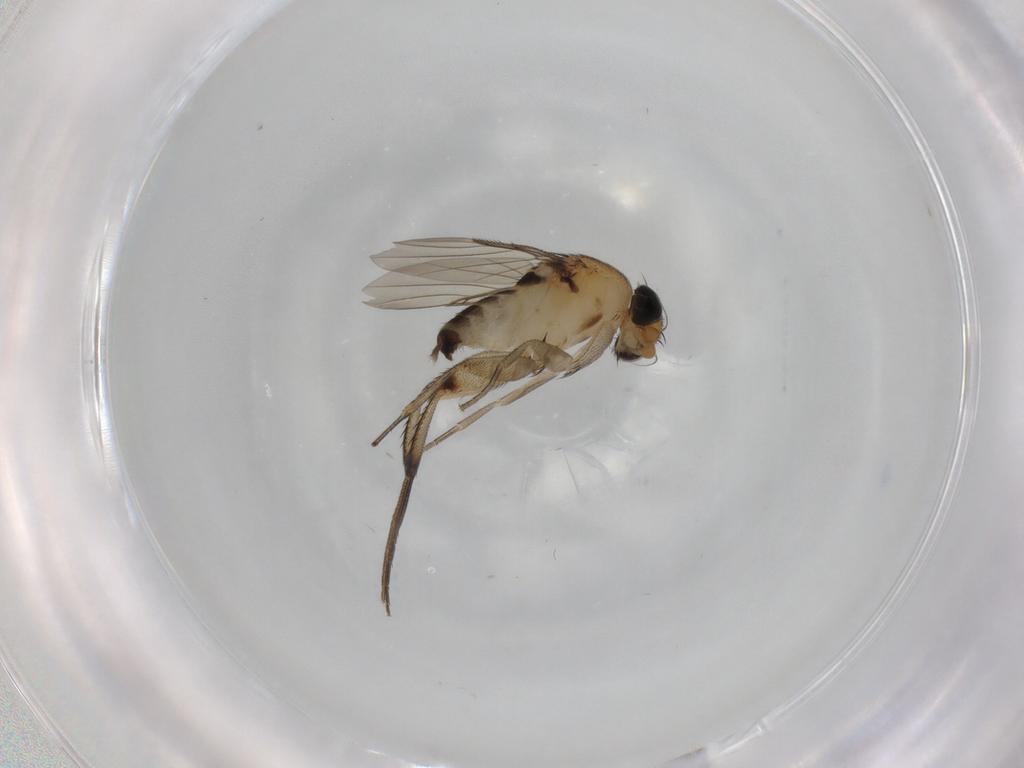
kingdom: Animalia
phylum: Arthropoda
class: Insecta
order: Diptera
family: Phoridae
